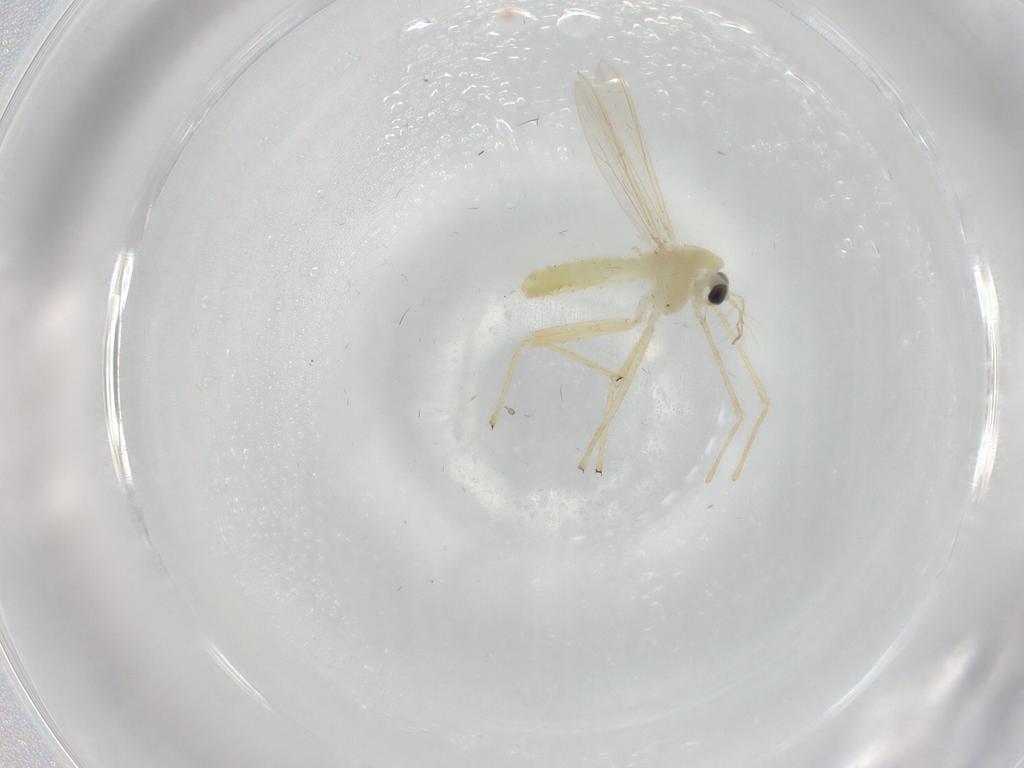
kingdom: Animalia
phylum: Arthropoda
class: Insecta
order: Diptera
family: Chironomidae
